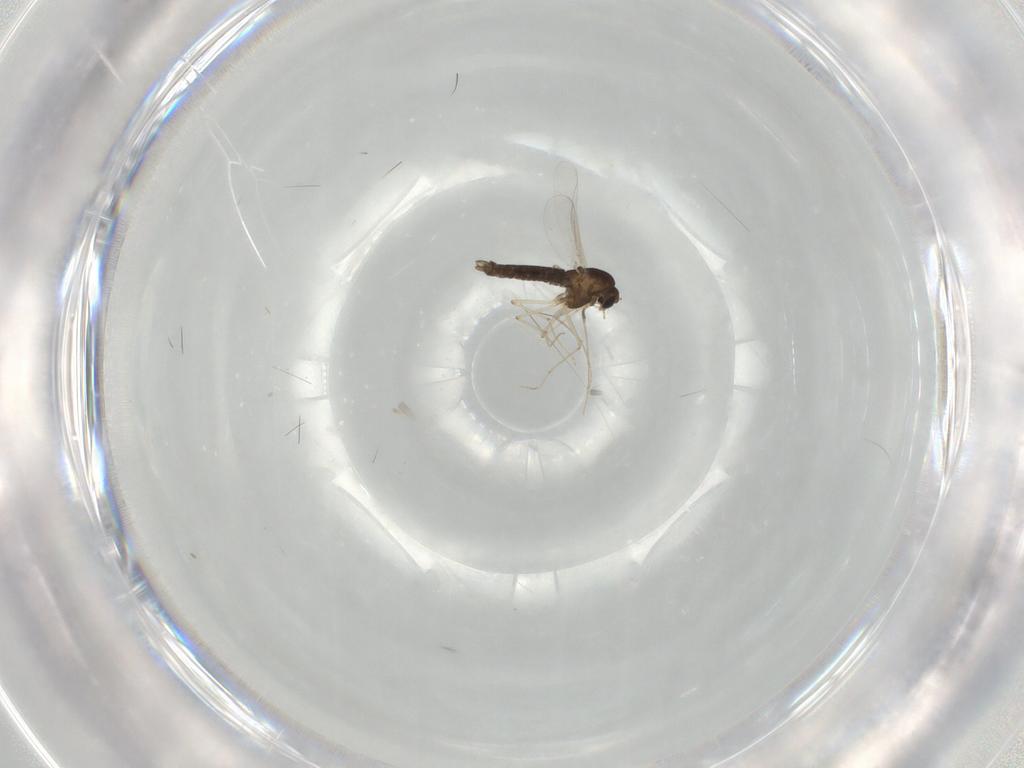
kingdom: Animalia
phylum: Arthropoda
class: Insecta
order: Diptera
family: Chironomidae
